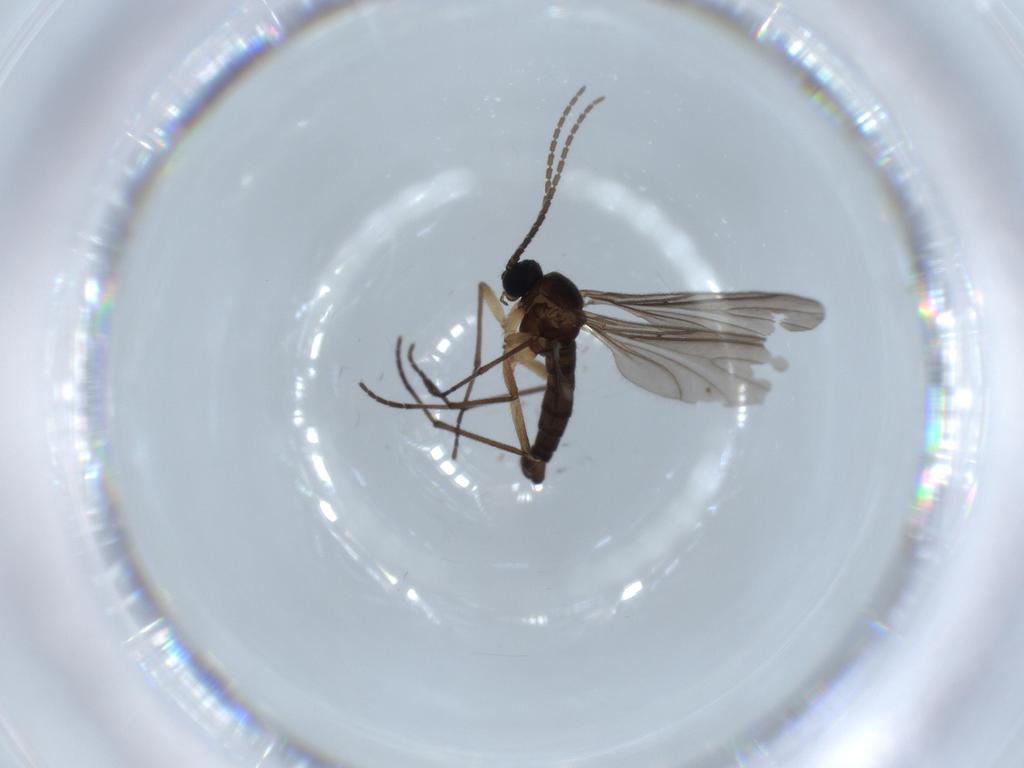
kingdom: Animalia
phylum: Arthropoda
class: Insecta
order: Diptera
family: Sciaridae
